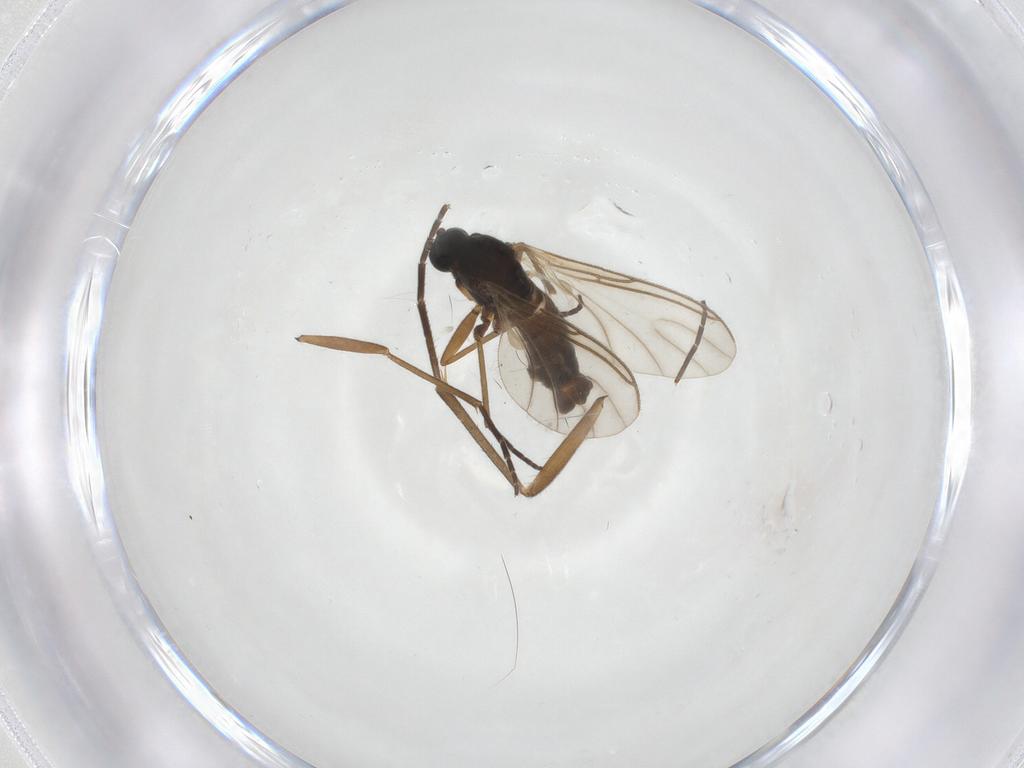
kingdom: Animalia
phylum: Arthropoda
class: Insecta
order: Diptera
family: Sciaridae
